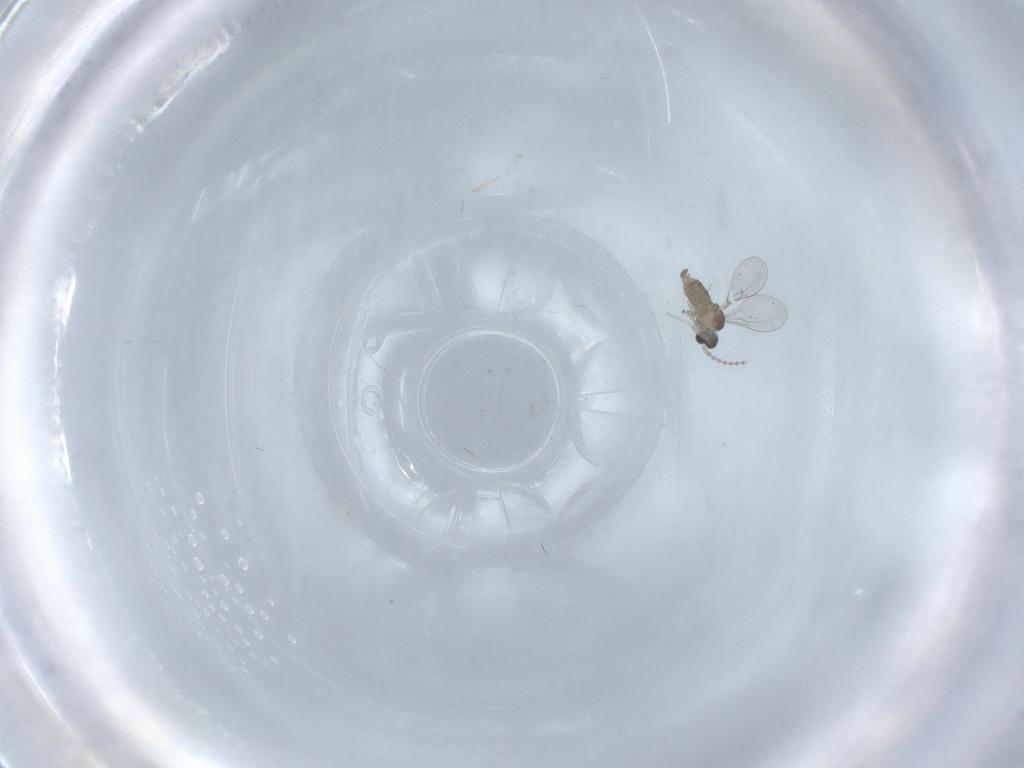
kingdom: Animalia
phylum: Arthropoda
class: Insecta
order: Diptera
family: Cecidomyiidae
